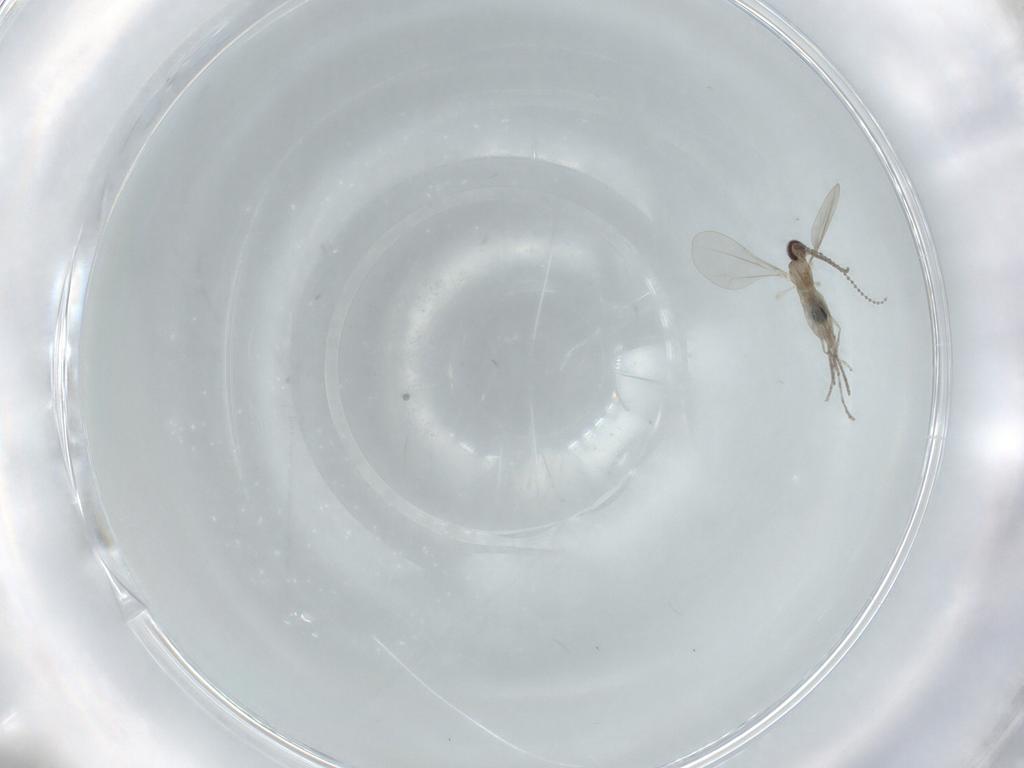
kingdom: Animalia
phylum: Arthropoda
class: Insecta
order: Diptera
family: Cecidomyiidae
